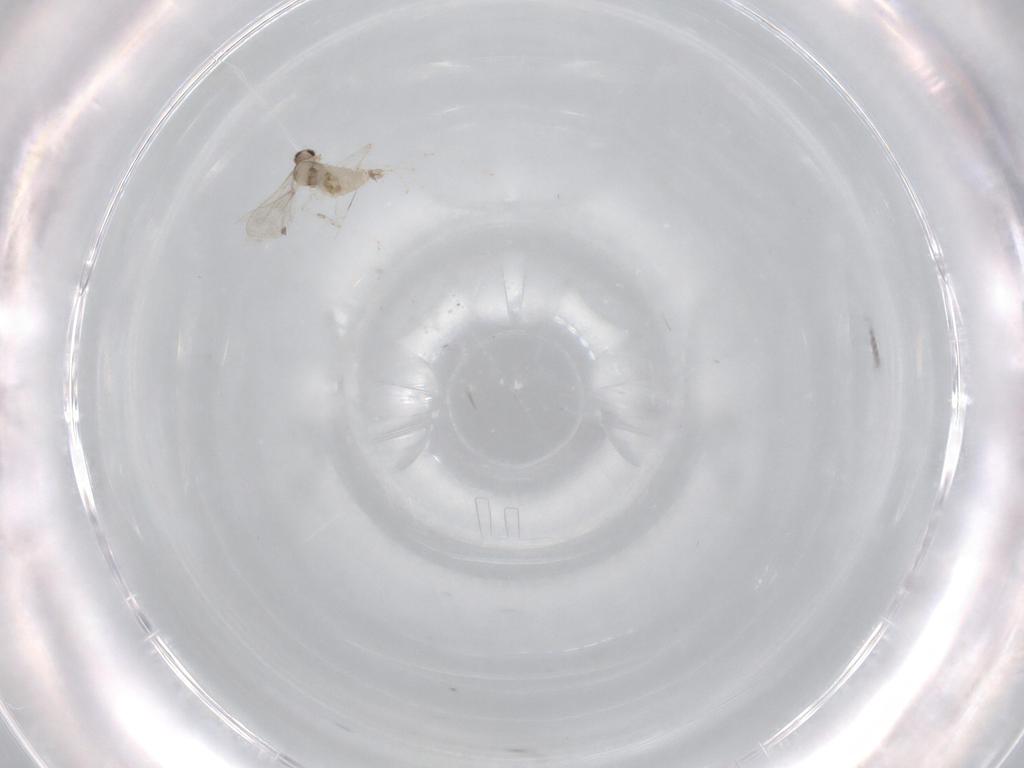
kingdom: Animalia
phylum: Arthropoda
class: Insecta
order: Diptera
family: Cecidomyiidae
